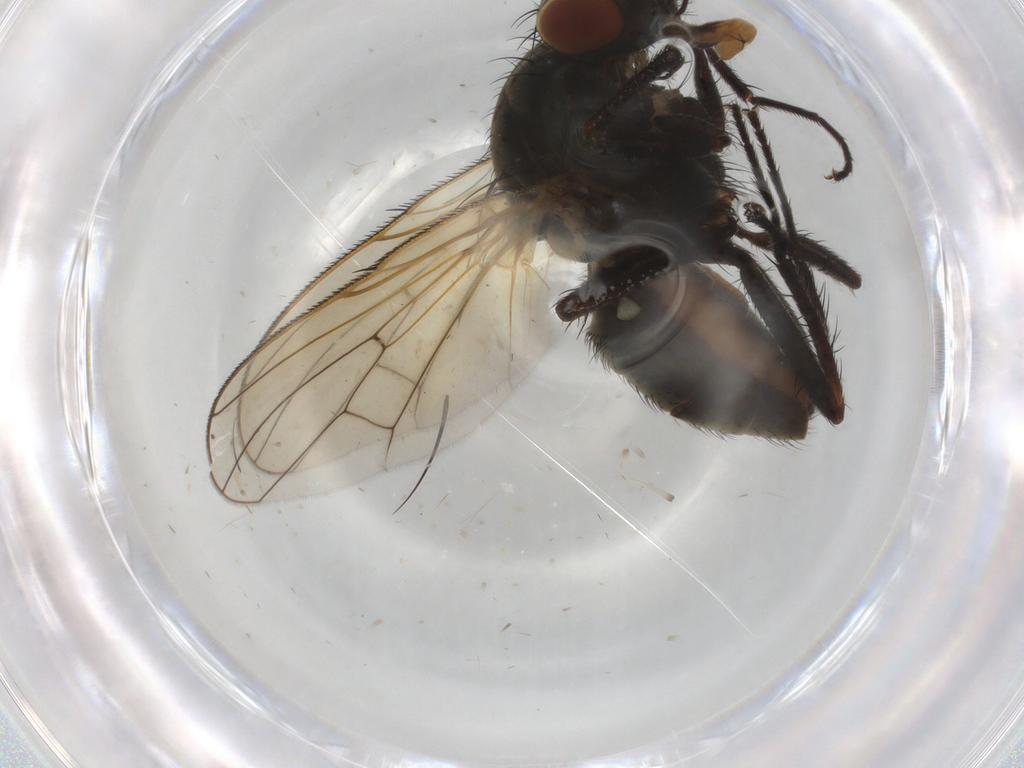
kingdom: Animalia
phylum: Arthropoda
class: Insecta
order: Diptera
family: Micropezidae
